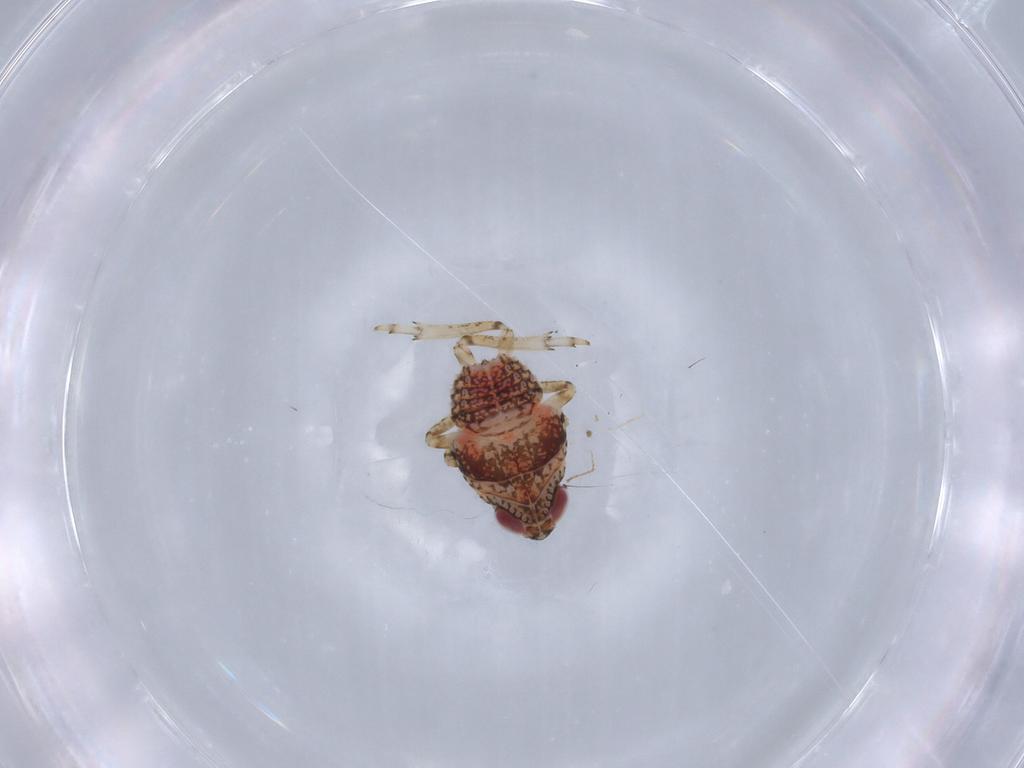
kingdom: Animalia
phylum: Arthropoda
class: Insecta
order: Hemiptera
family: Issidae
